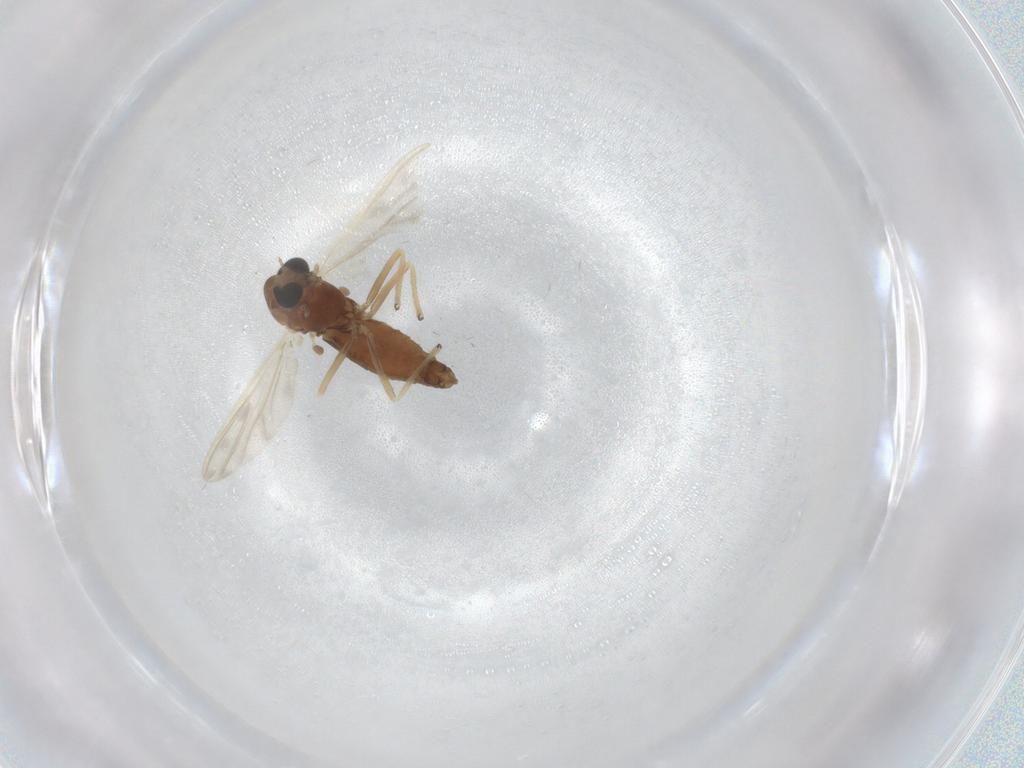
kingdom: Animalia
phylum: Arthropoda
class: Insecta
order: Diptera
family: Chironomidae
